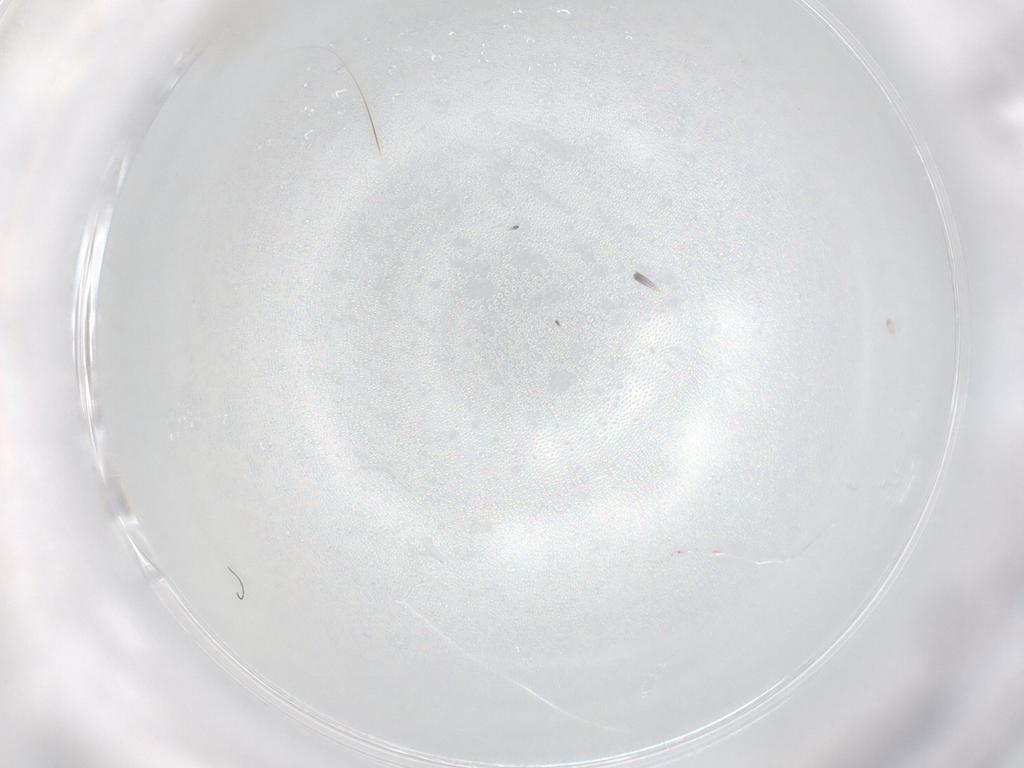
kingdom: Animalia
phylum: Arthropoda
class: Insecta
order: Diptera
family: Cecidomyiidae
